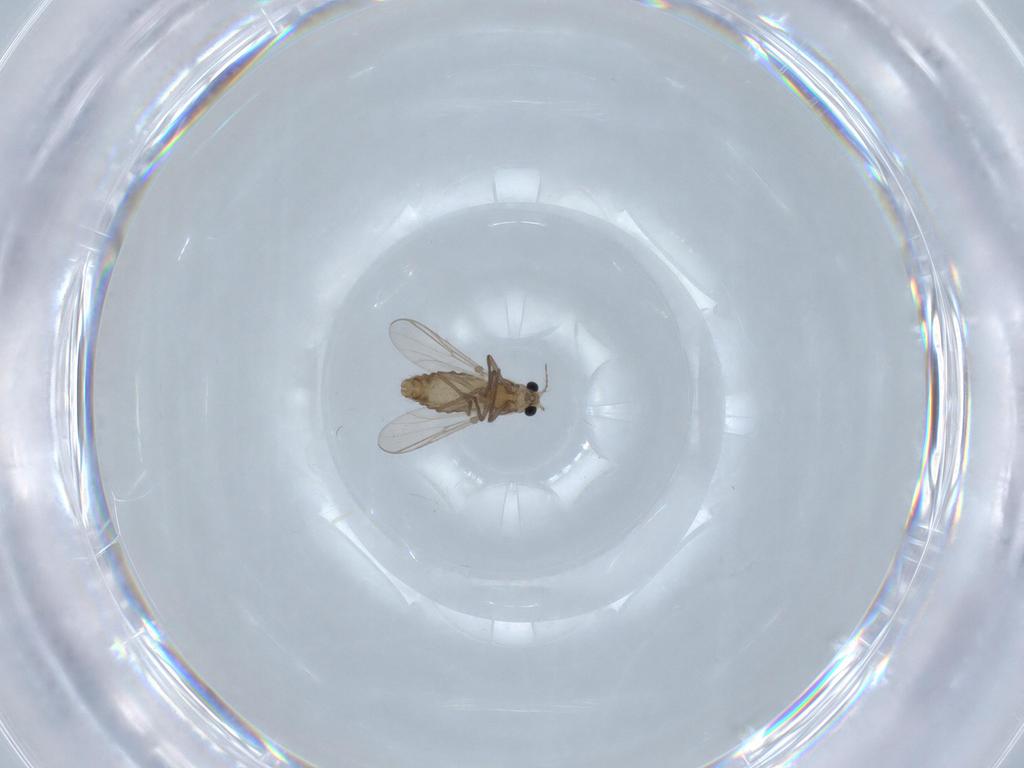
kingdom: Animalia
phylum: Arthropoda
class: Insecta
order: Diptera
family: Chironomidae
